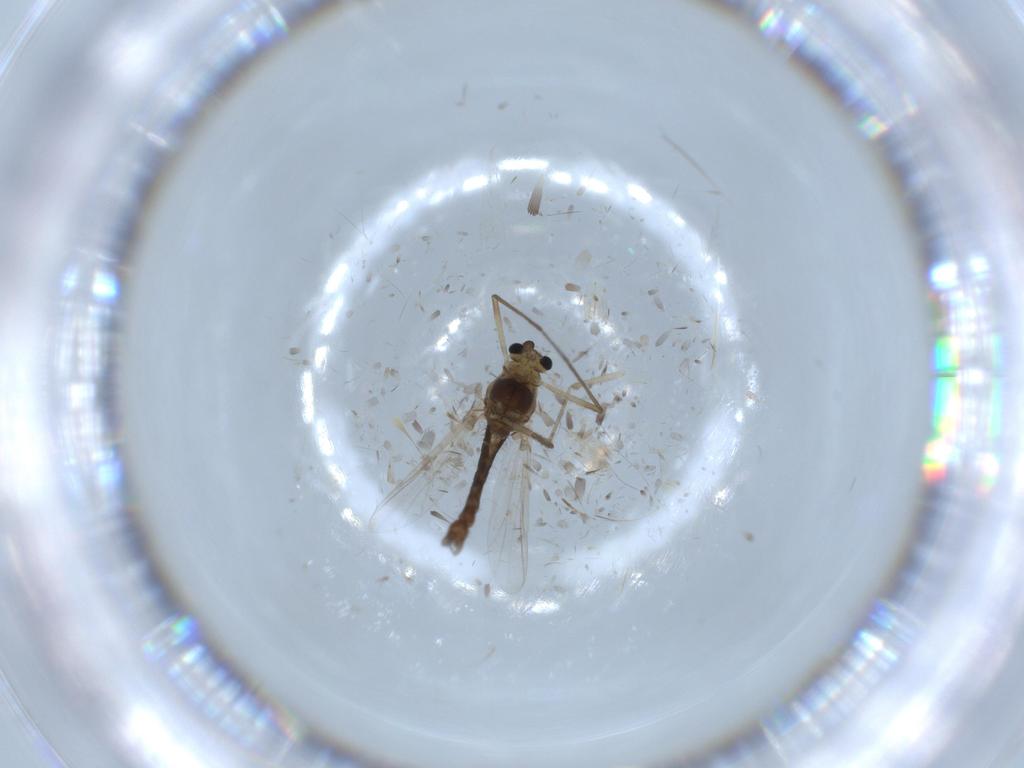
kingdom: Animalia
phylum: Arthropoda
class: Insecta
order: Diptera
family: Chironomidae
